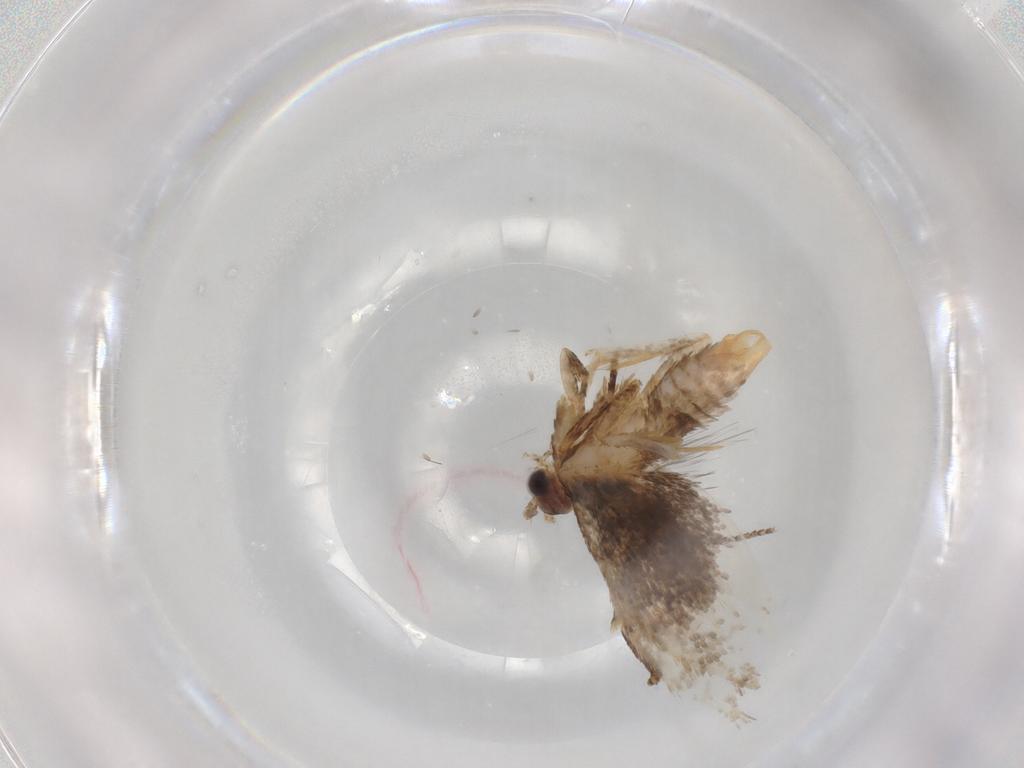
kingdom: Animalia
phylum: Arthropoda
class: Insecta
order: Lepidoptera
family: Tineidae
